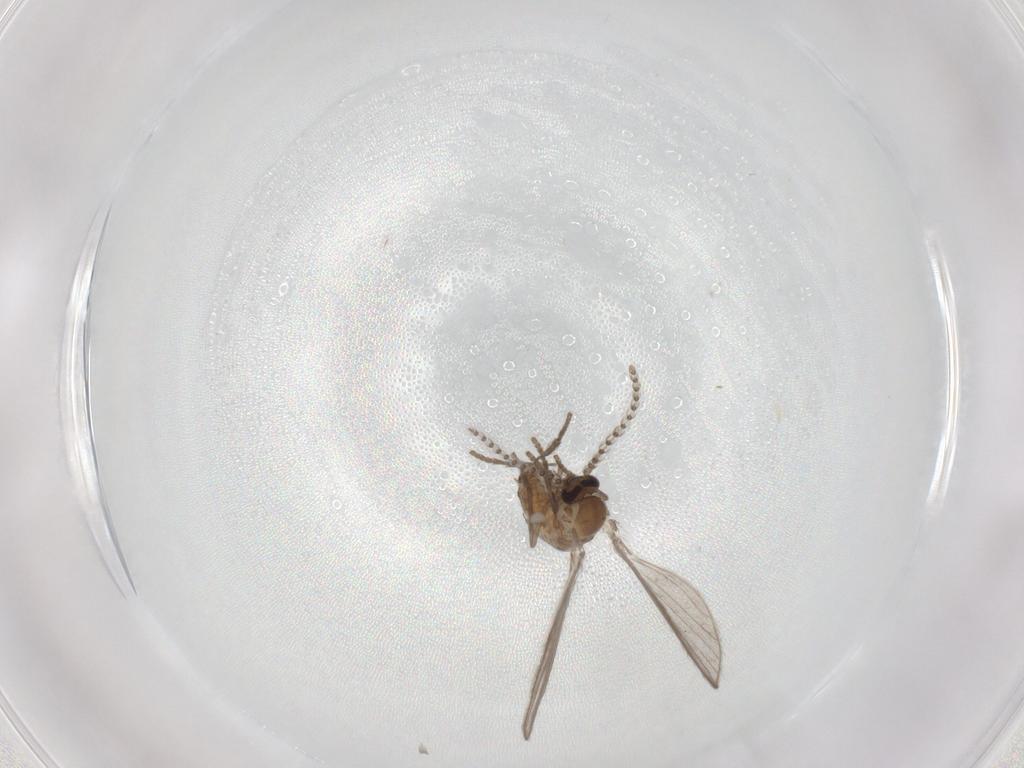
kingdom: Animalia
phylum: Arthropoda
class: Insecta
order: Diptera
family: Psychodidae
